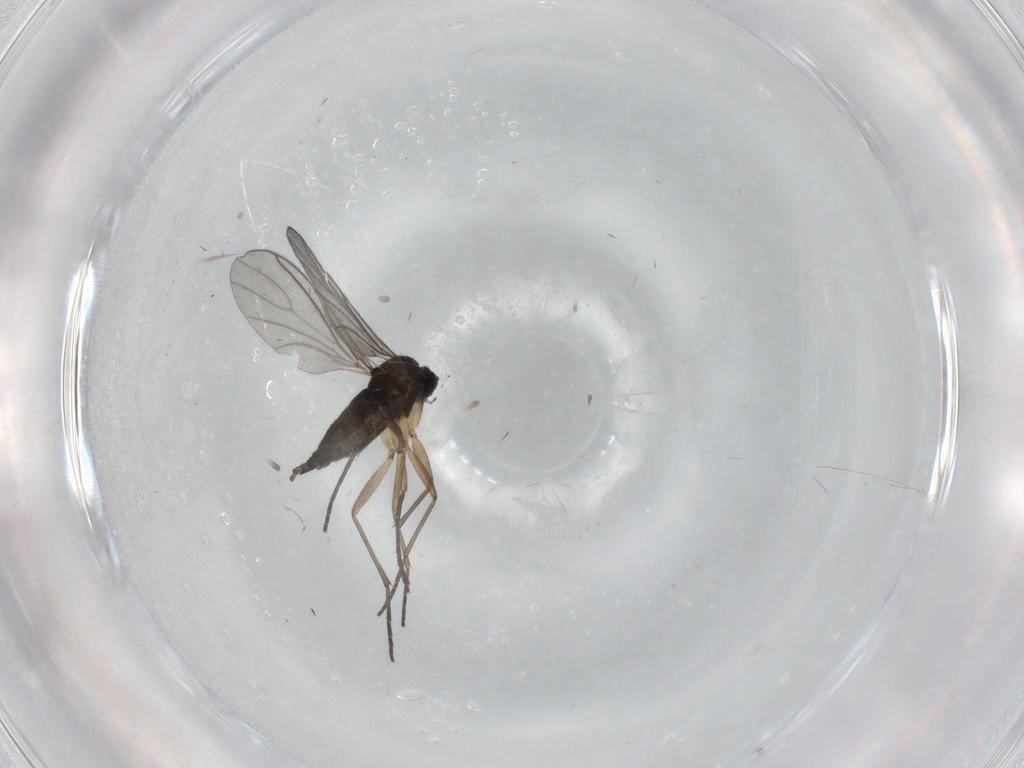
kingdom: Animalia
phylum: Arthropoda
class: Insecta
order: Diptera
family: Sciaridae
